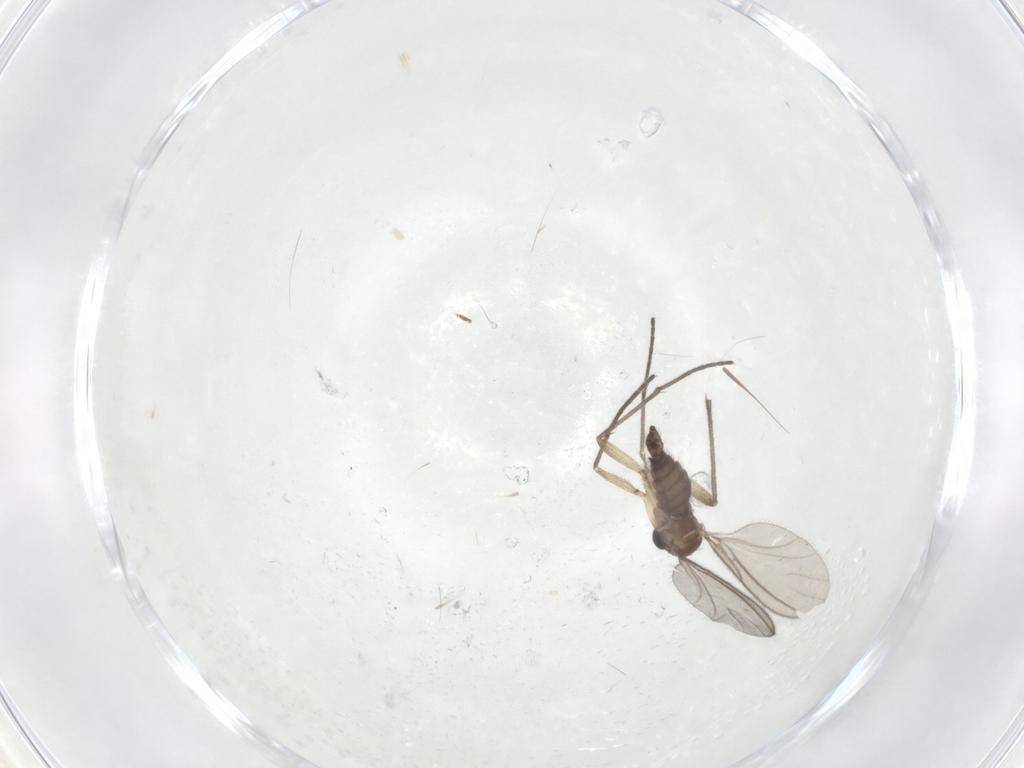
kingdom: Animalia
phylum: Arthropoda
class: Insecta
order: Diptera
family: Sciaridae
